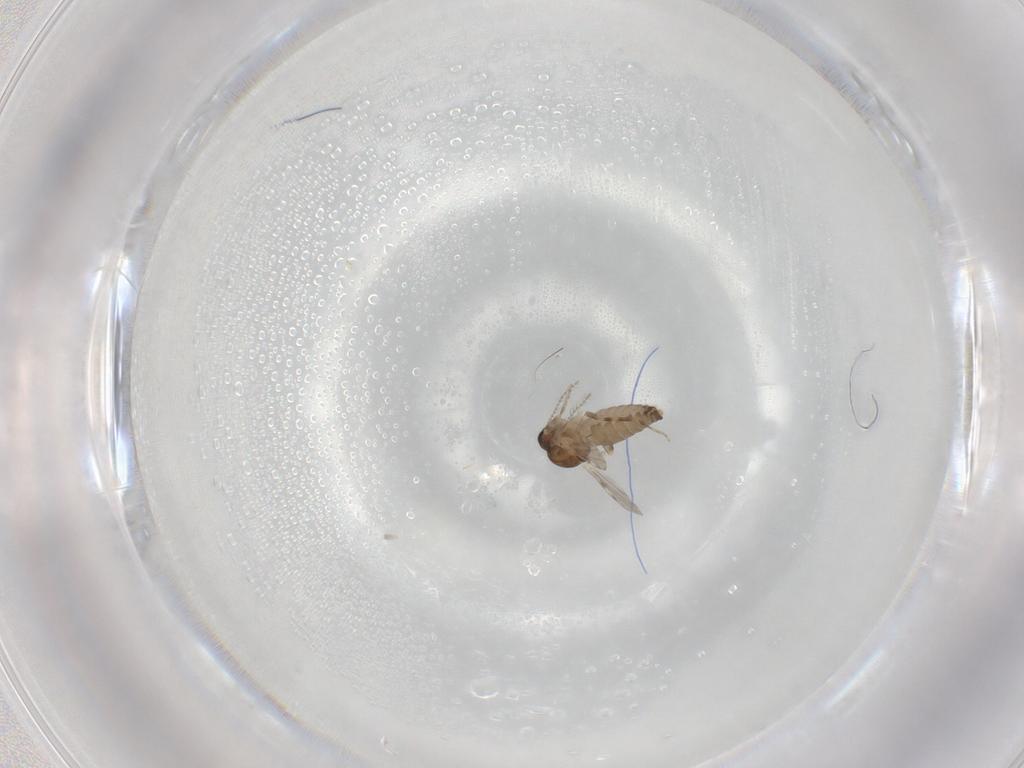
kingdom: Animalia
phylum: Arthropoda
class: Insecta
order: Diptera
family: Ceratopogonidae
